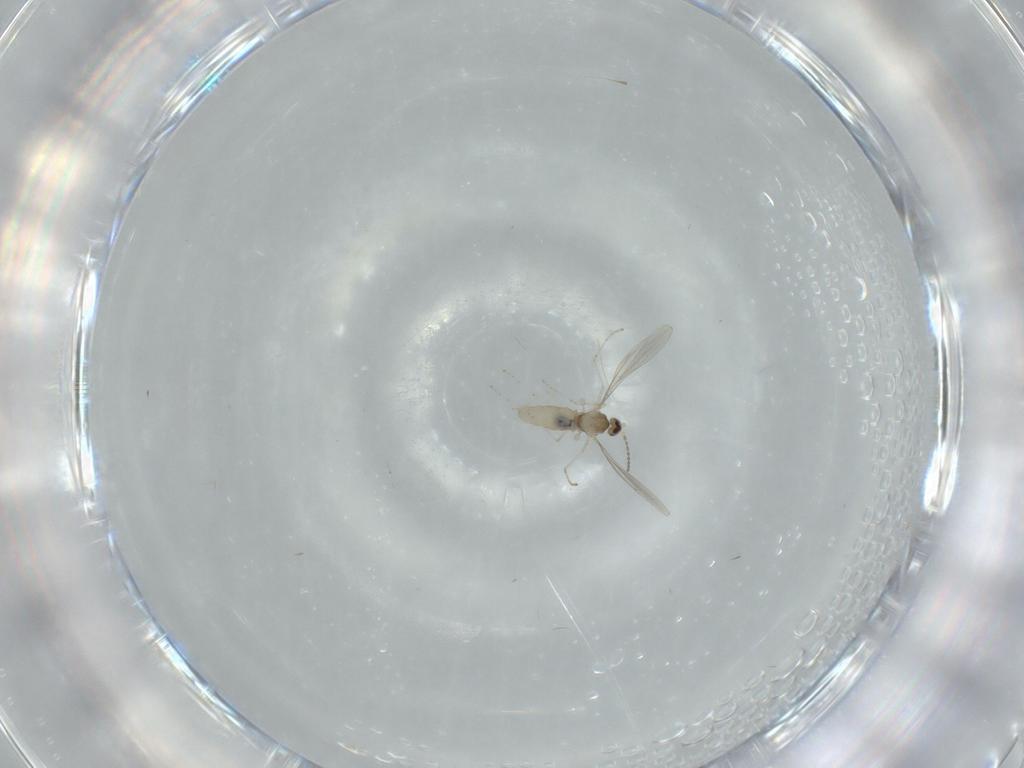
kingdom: Animalia
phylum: Arthropoda
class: Insecta
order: Diptera
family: Cecidomyiidae
